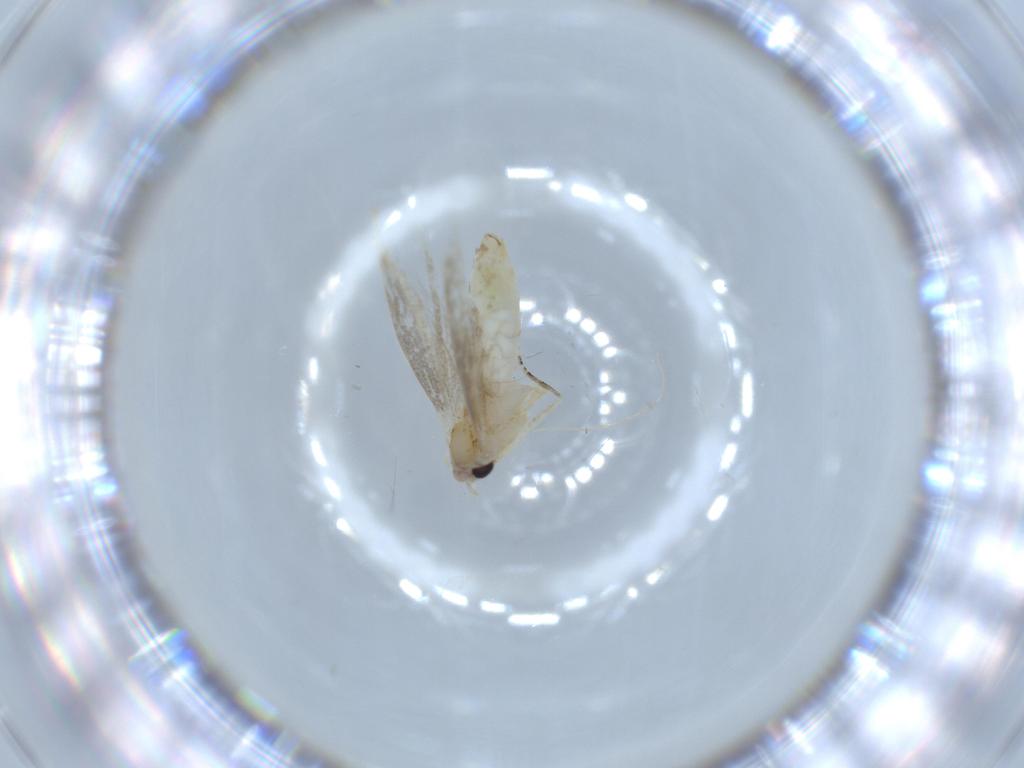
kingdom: Animalia
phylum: Arthropoda
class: Insecta
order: Lepidoptera
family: Bucculatricidae
